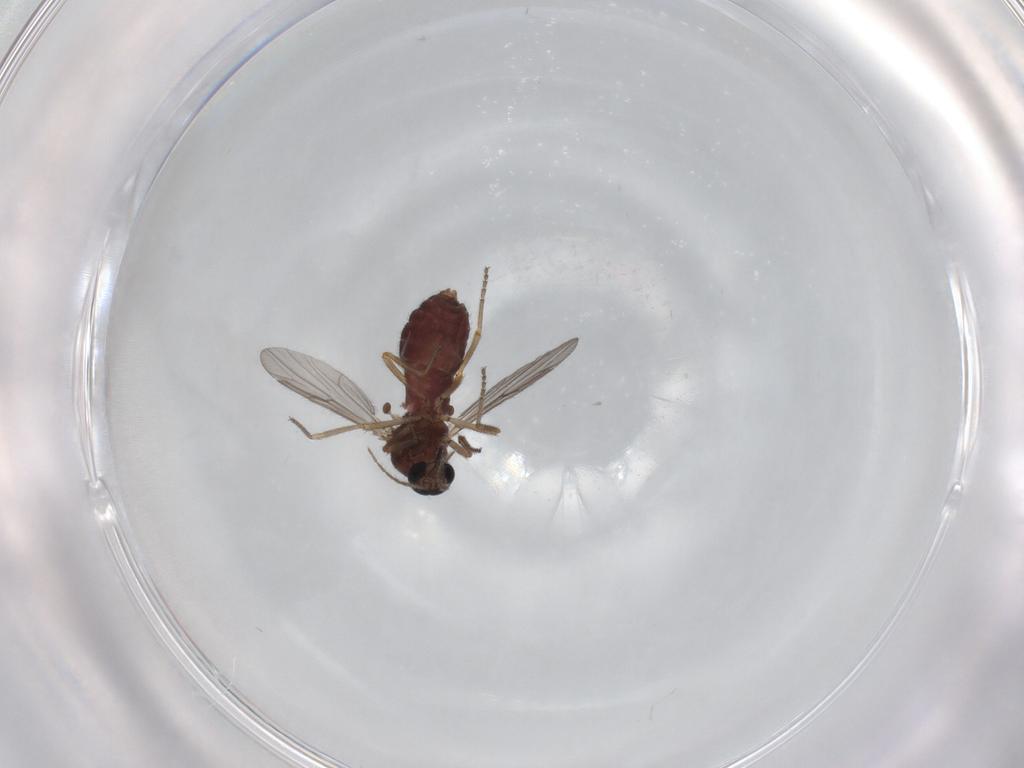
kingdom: Animalia
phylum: Arthropoda
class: Insecta
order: Diptera
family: Ceratopogonidae
